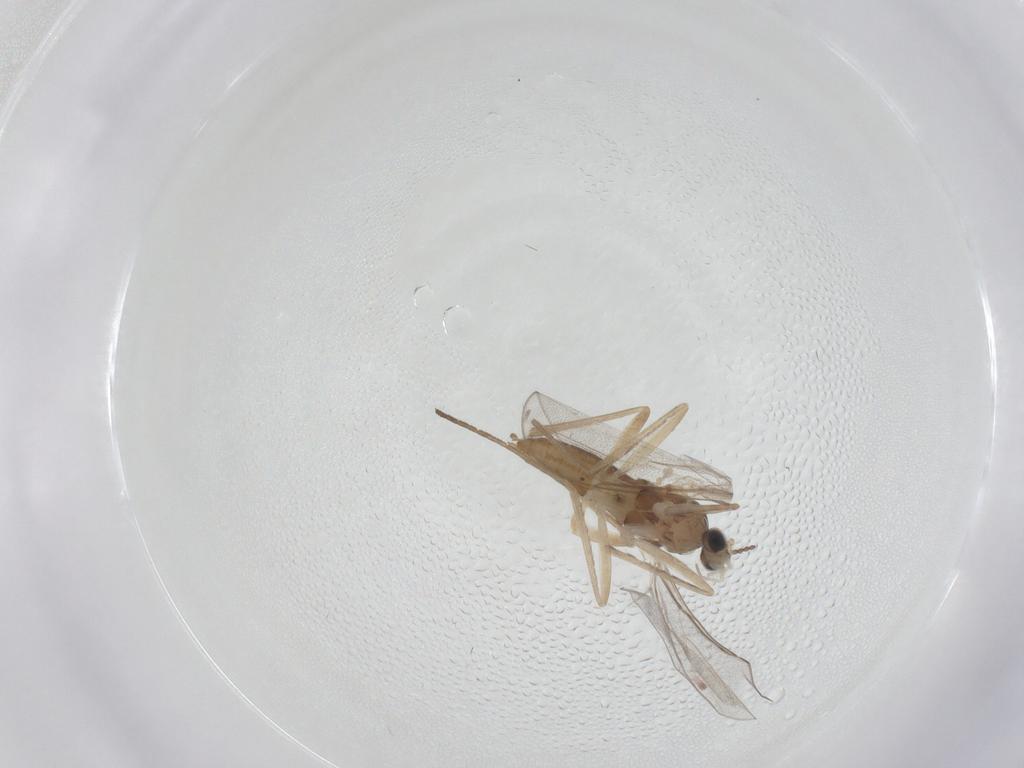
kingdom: Animalia
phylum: Arthropoda
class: Insecta
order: Diptera
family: Cecidomyiidae
